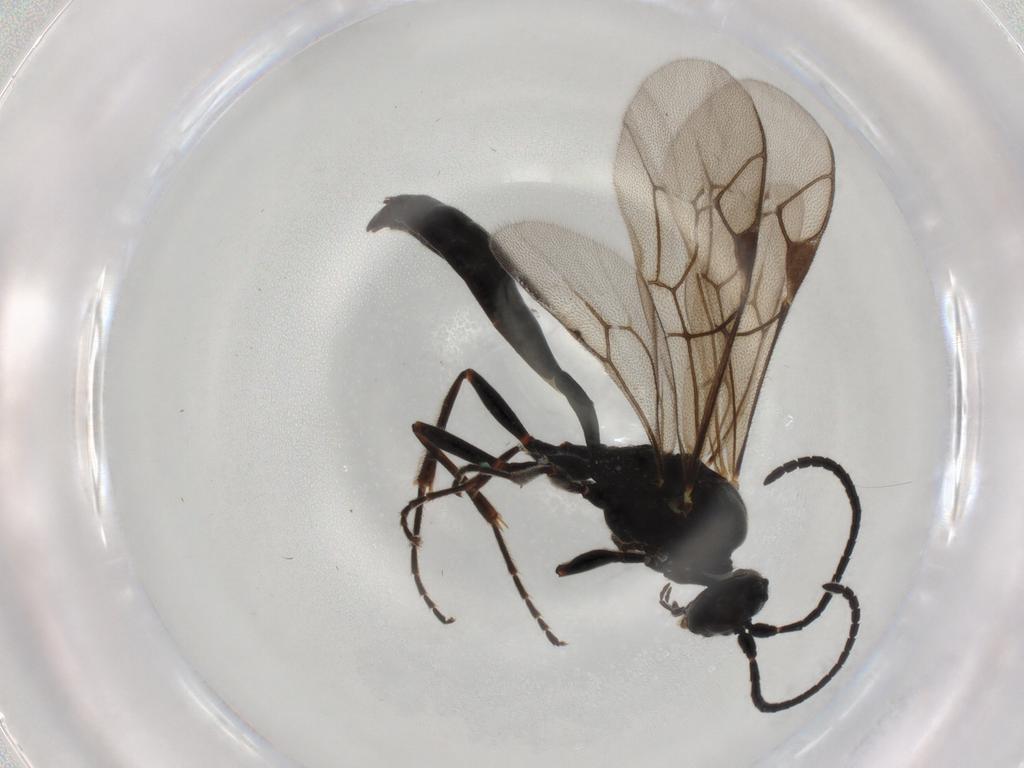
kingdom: Animalia
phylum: Arthropoda
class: Insecta
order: Hymenoptera
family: Ichneumonidae
